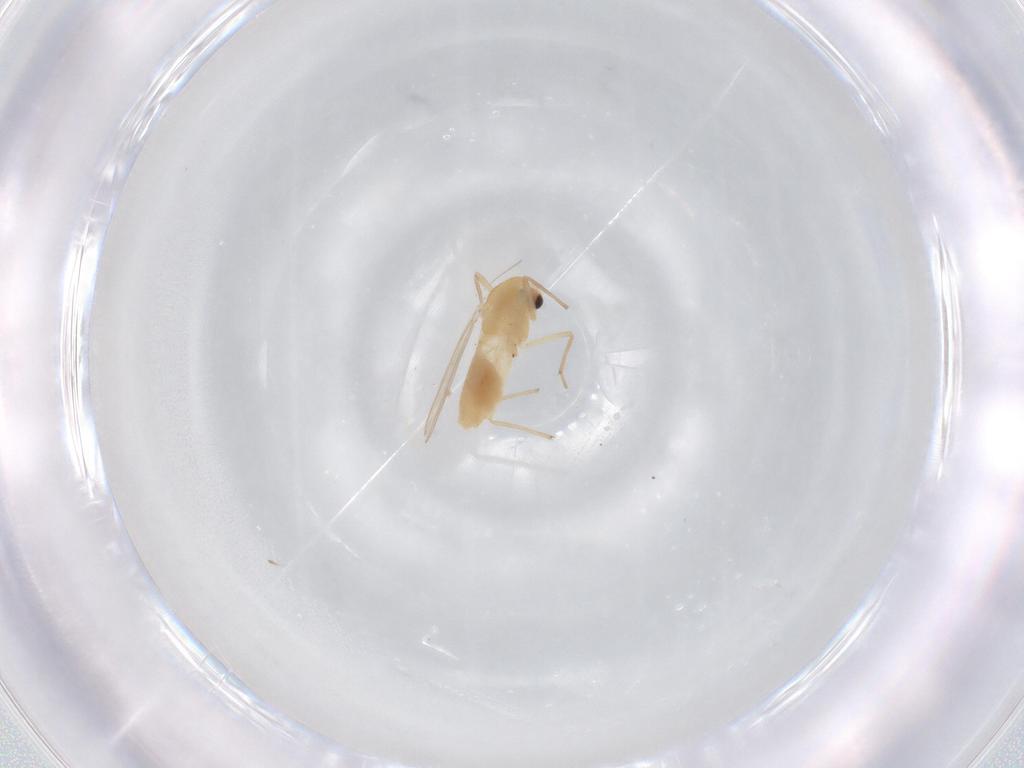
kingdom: Animalia
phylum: Arthropoda
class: Insecta
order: Diptera
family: Chironomidae
